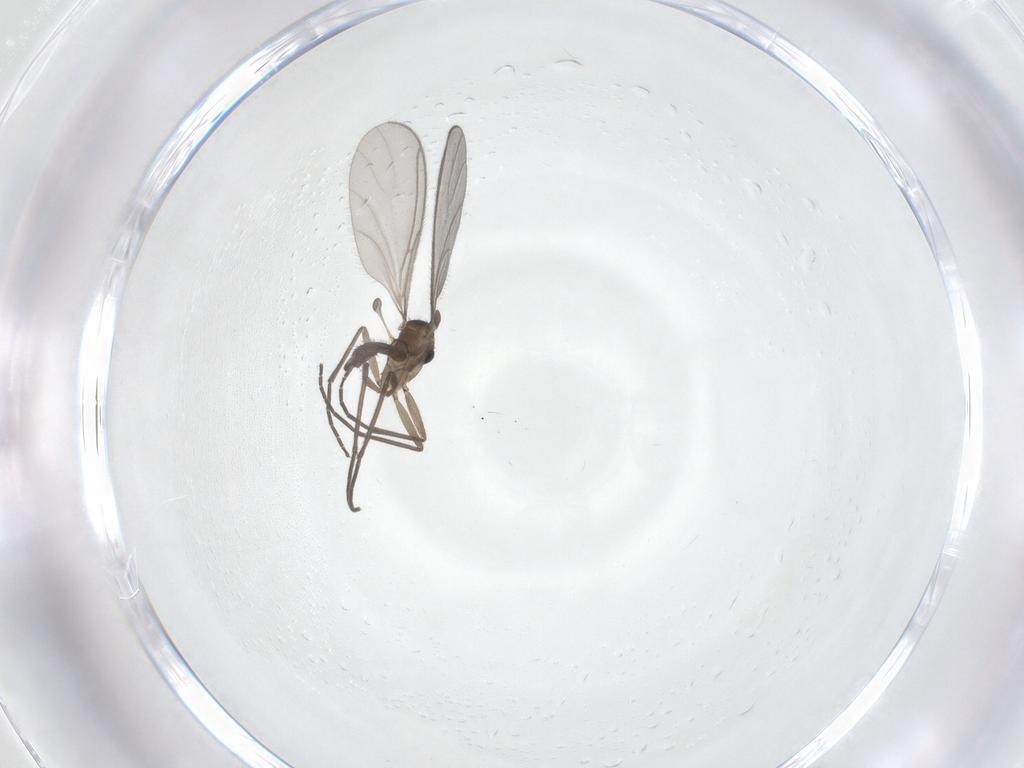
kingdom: Animalia
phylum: Arthropoda
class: Insecta
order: Diptera
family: Sciaridae
